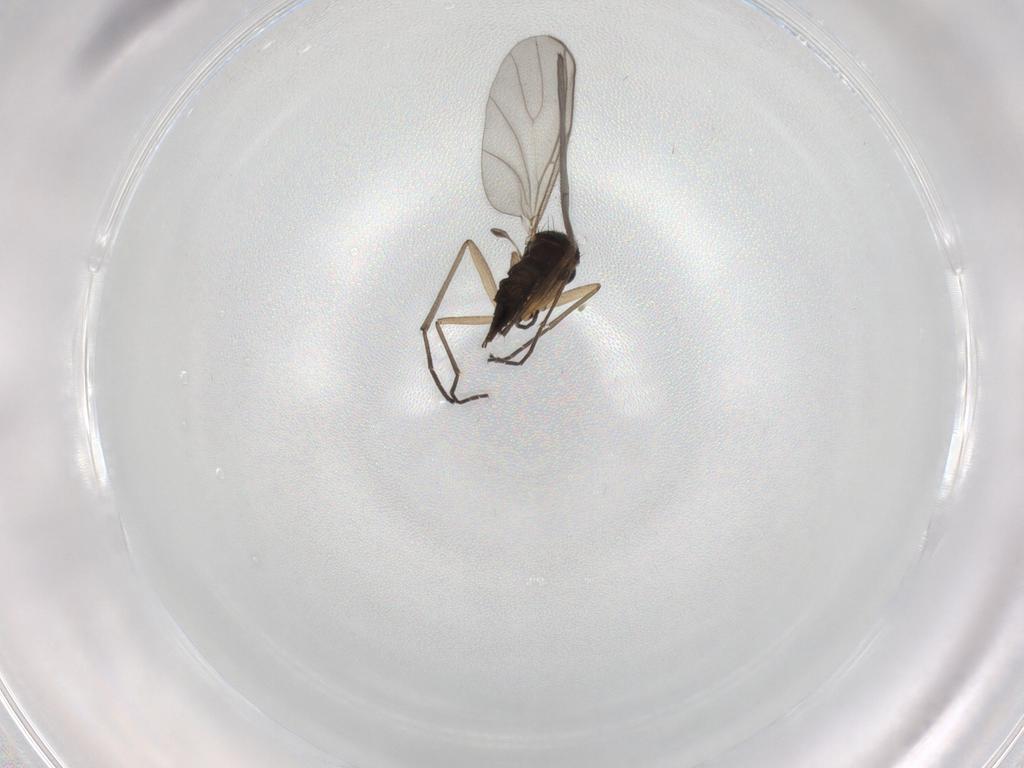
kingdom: Animalia
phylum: Arthropoda
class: Insecta
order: Diptera
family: Sciaridae
